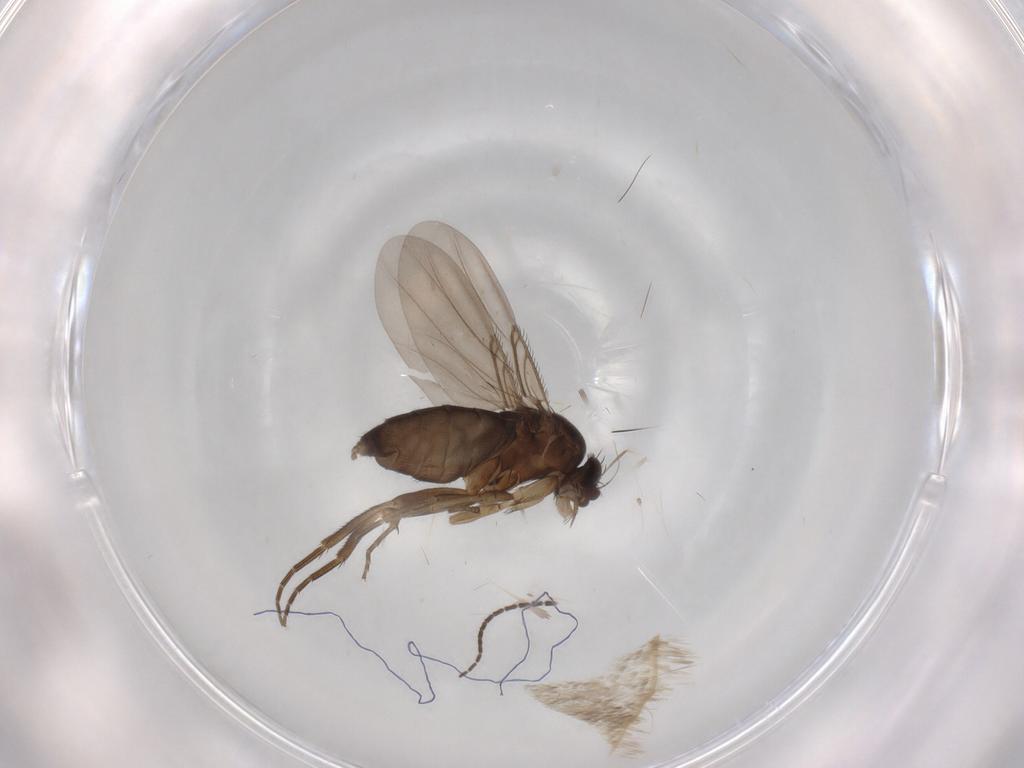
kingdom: Animalia
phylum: Arthropoda
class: Insecta
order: Diptera
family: Phoridae
